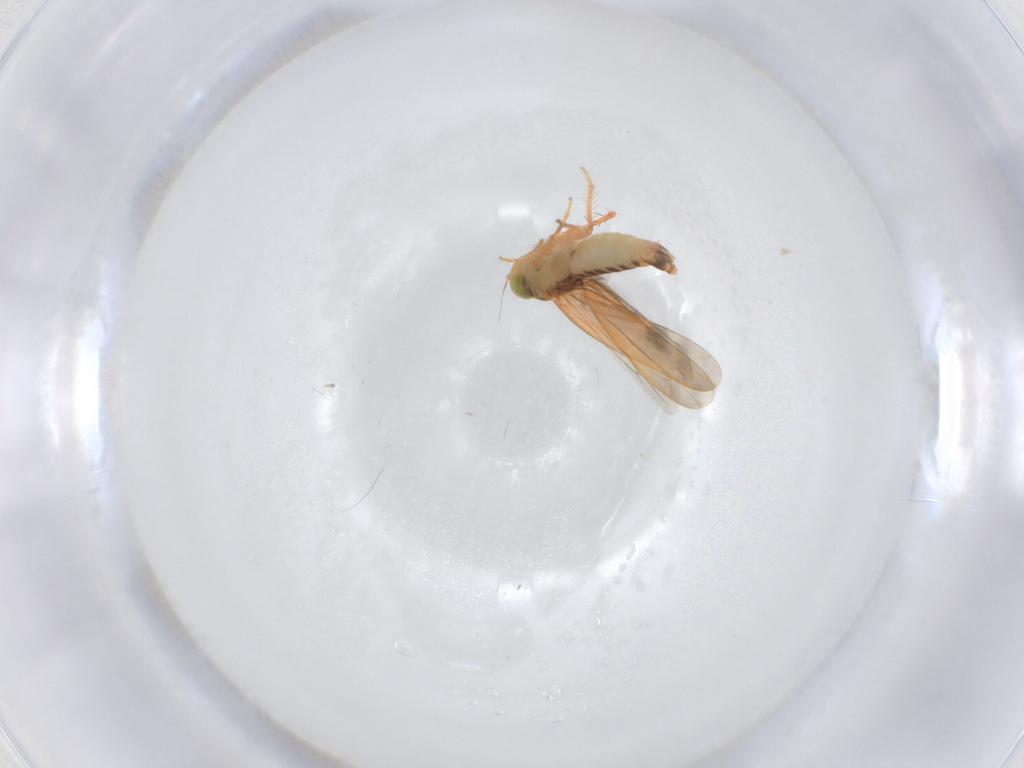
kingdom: Animalia
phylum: Arthropoda
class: Insecta
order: Hemiptera
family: Cicadellidae
